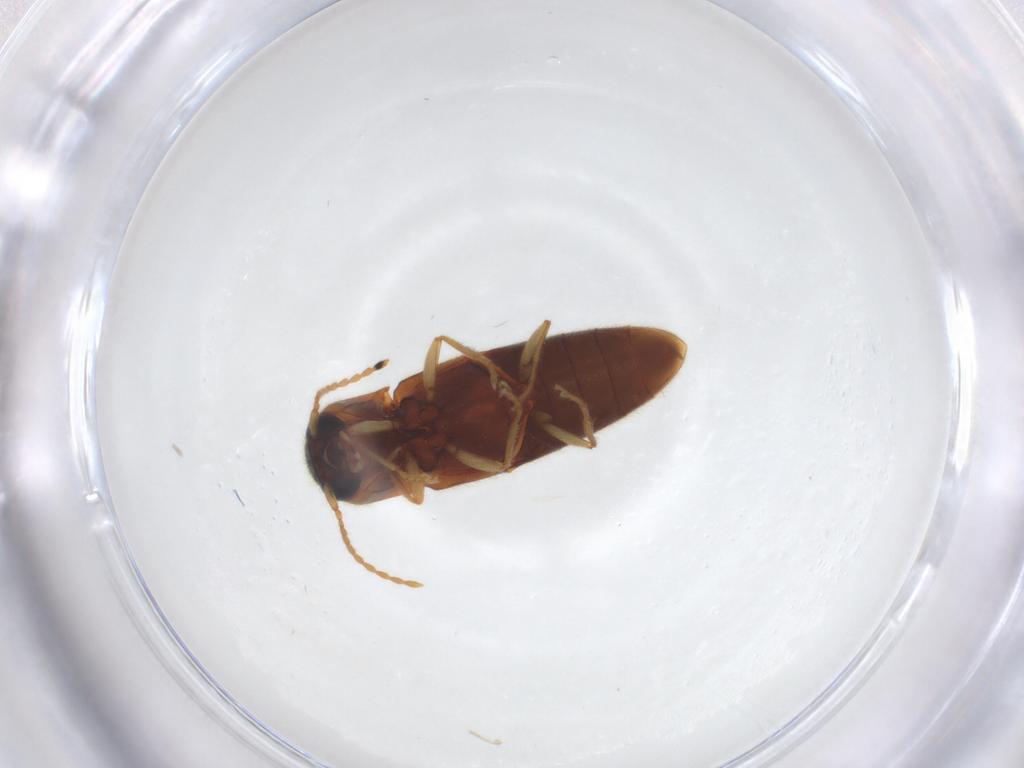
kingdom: Animalia
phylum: Arthropoda
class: Insecta
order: Coleoptera
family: Elateridae
